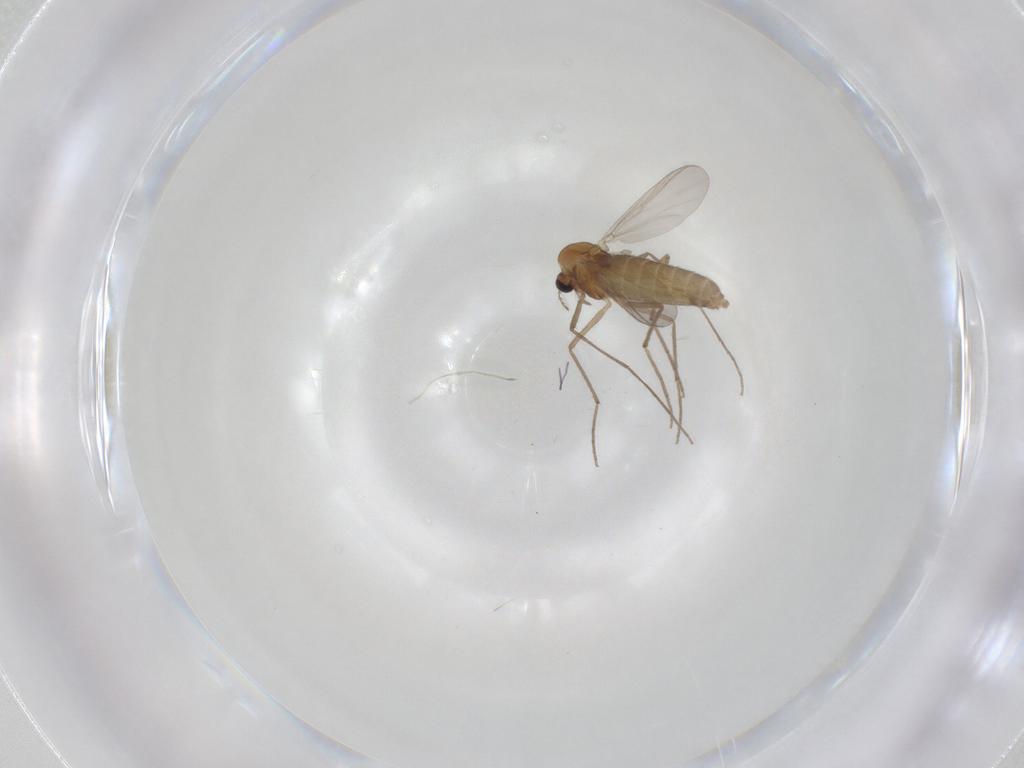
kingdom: Animalia
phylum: Arthropoda
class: Insecta
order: Diptera
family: Chironomidae
